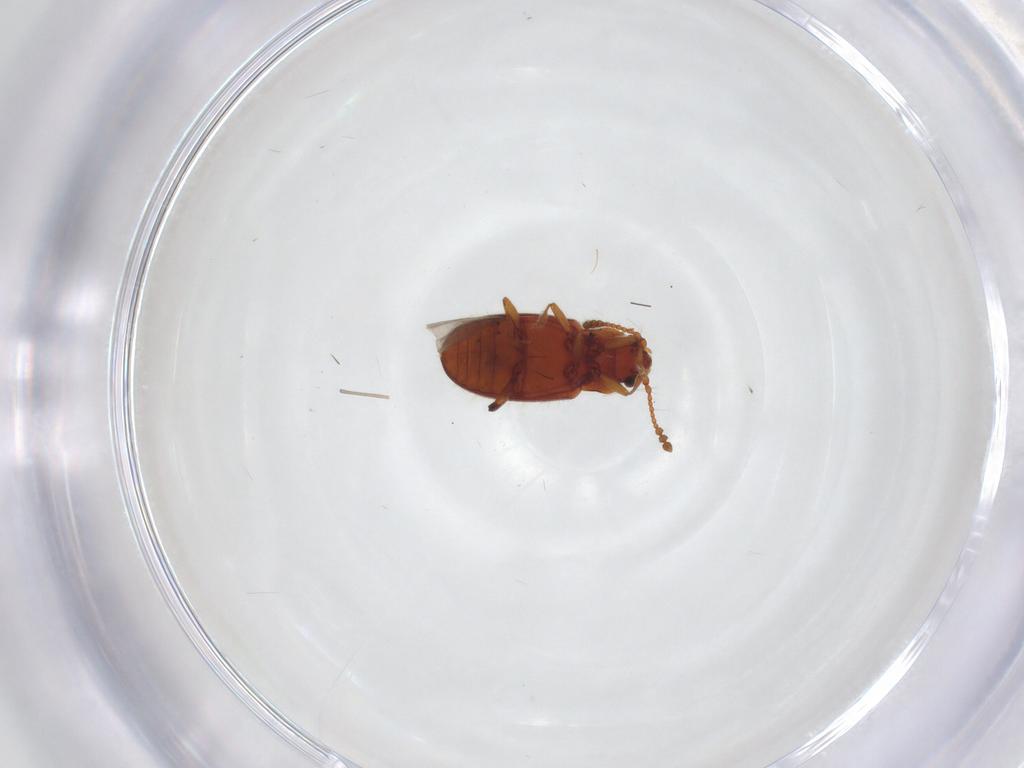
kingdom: Animalia
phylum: Arthropoda
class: Insecta
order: Coleoptera
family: Cryptophagidae
